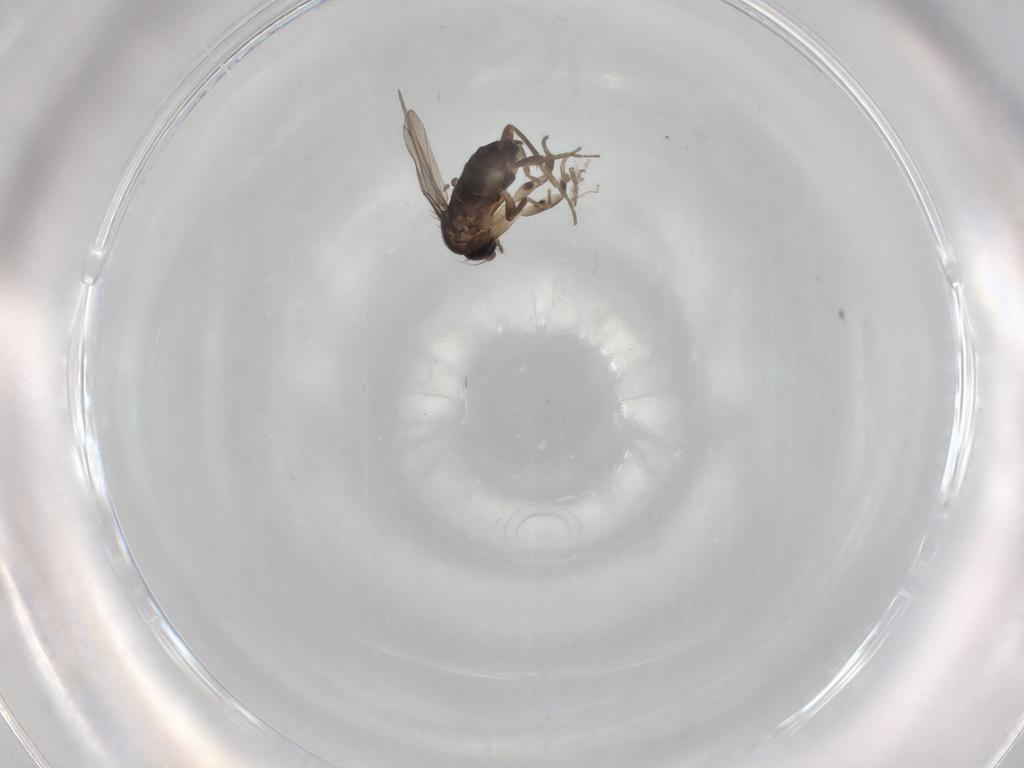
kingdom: Animalia
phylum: Arthropoda
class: Insecta
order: Diptera
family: Phoridae
